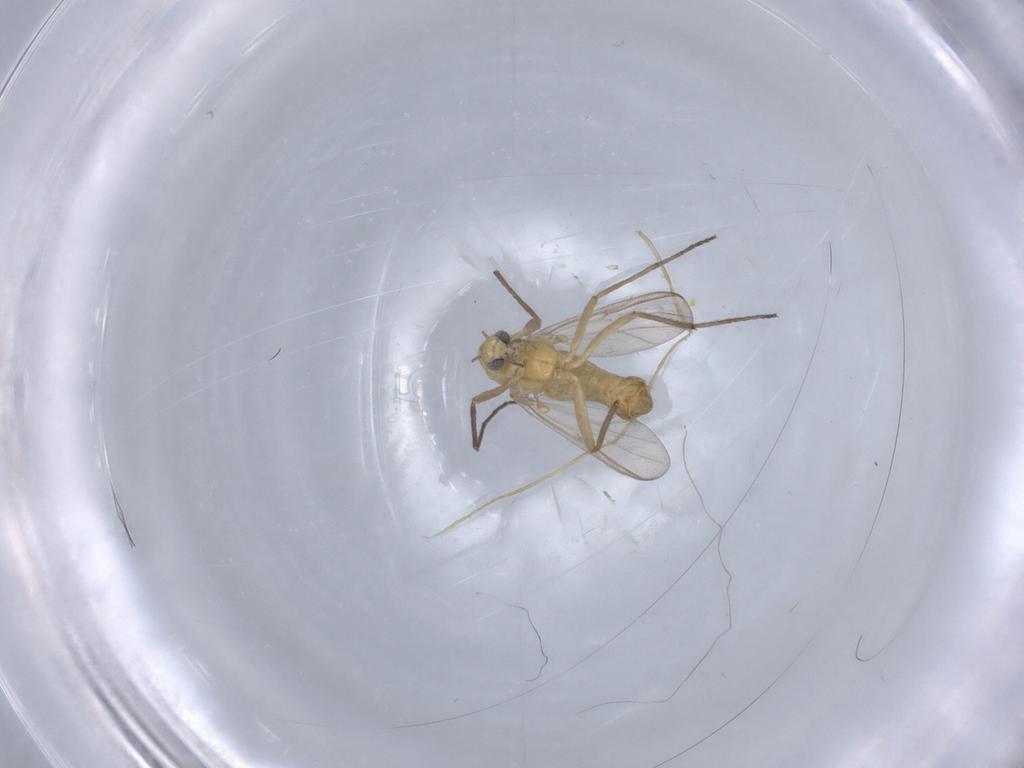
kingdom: Animalia
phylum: Arthropoda
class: Insecta
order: Diptera
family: Chironomidae
